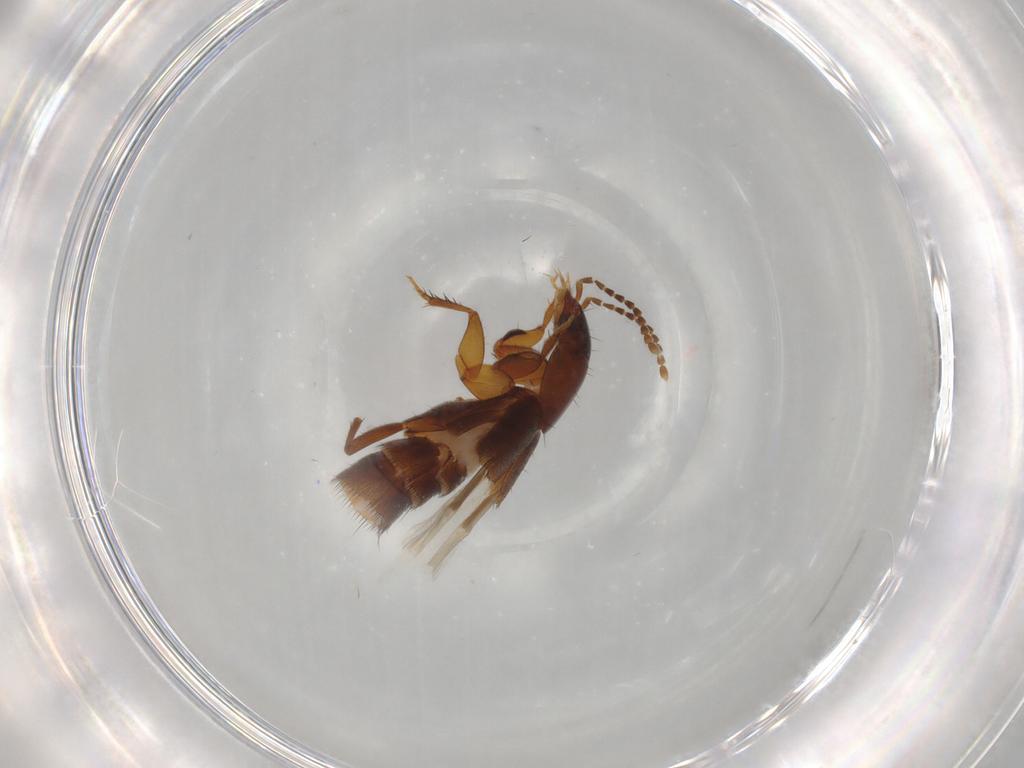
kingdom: Animalia
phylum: Arthropoda
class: Insecta
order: Coleoptera
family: Staphylinidae
